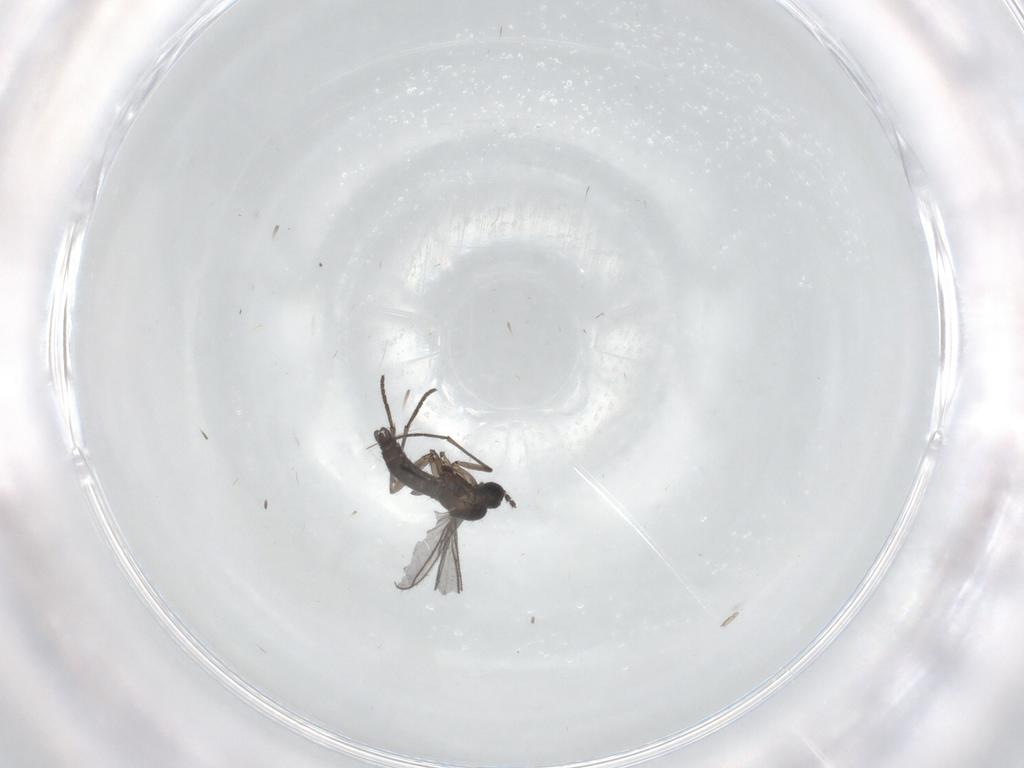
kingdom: Animalia
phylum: Arthropoda
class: Insecta
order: Diptera
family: Cecidomyiidae
